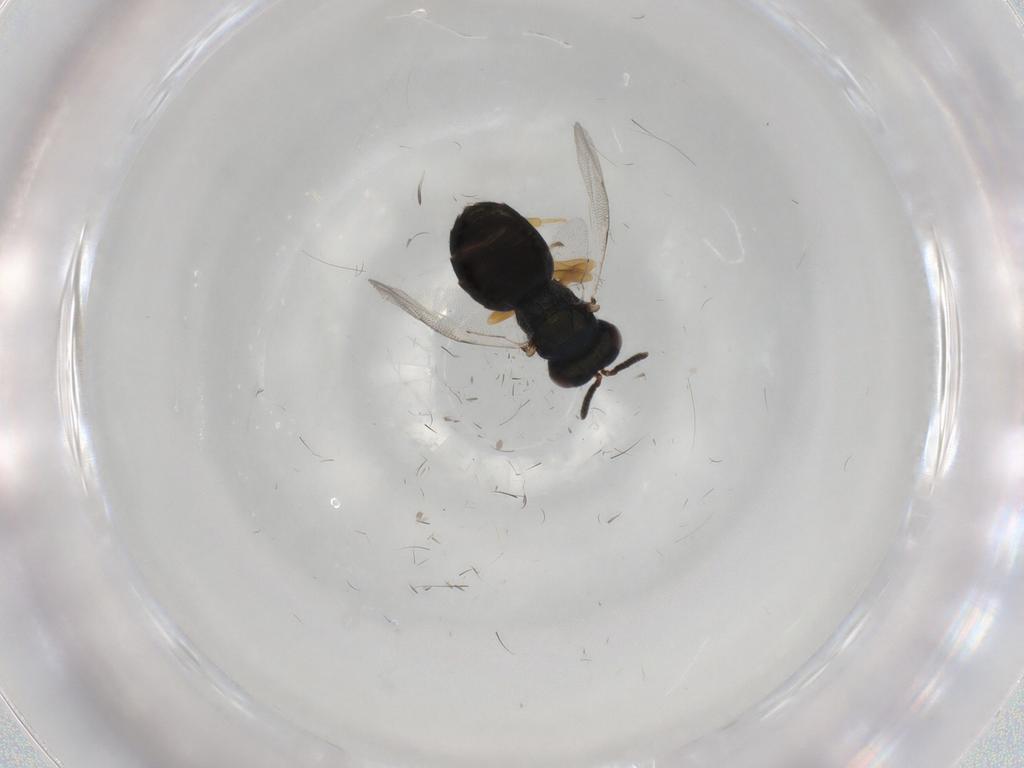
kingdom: Animalia
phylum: Arthropoda
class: Insecta
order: Hymenoptera
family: Pteromalidae
